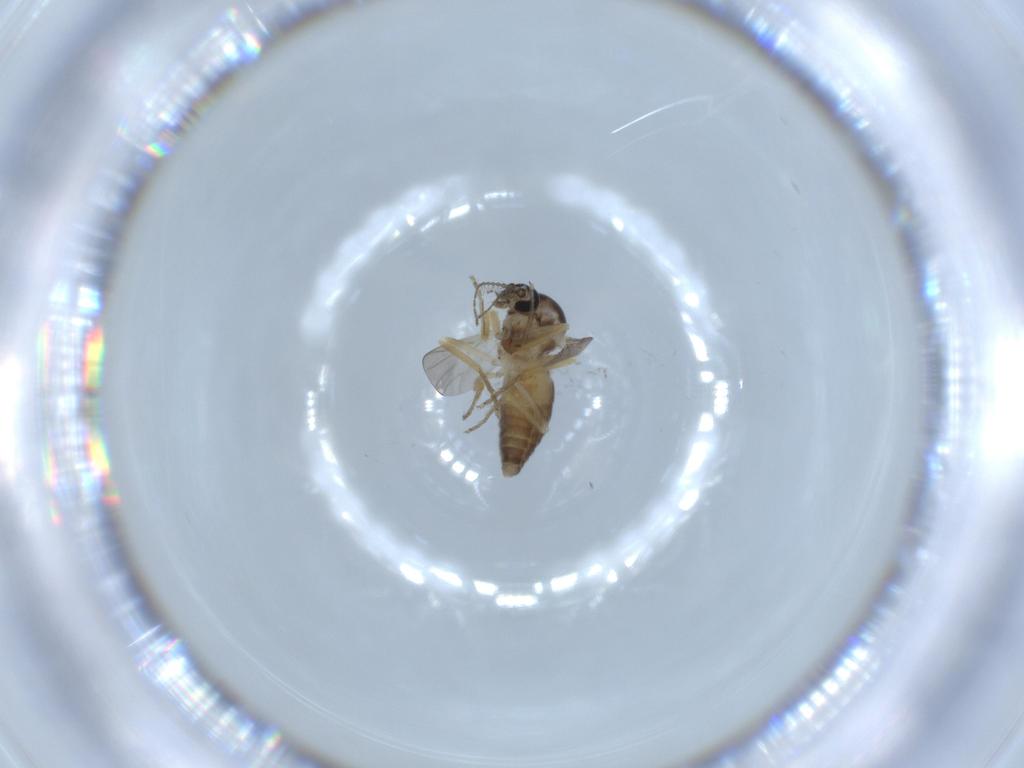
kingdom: Animalia
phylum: Arthropoda
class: Insecta
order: Diptera
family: Ceratopogonidae
